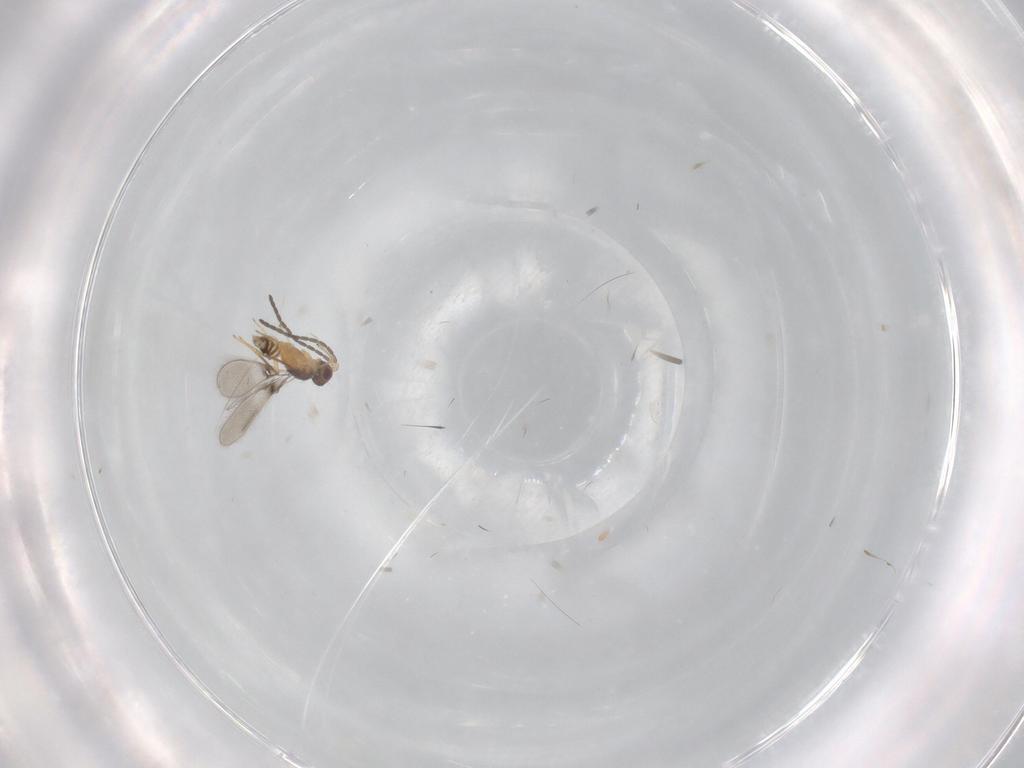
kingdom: Animalia
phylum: Arthropoda
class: Insecta
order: Hymenoptera
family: Mymaridae
